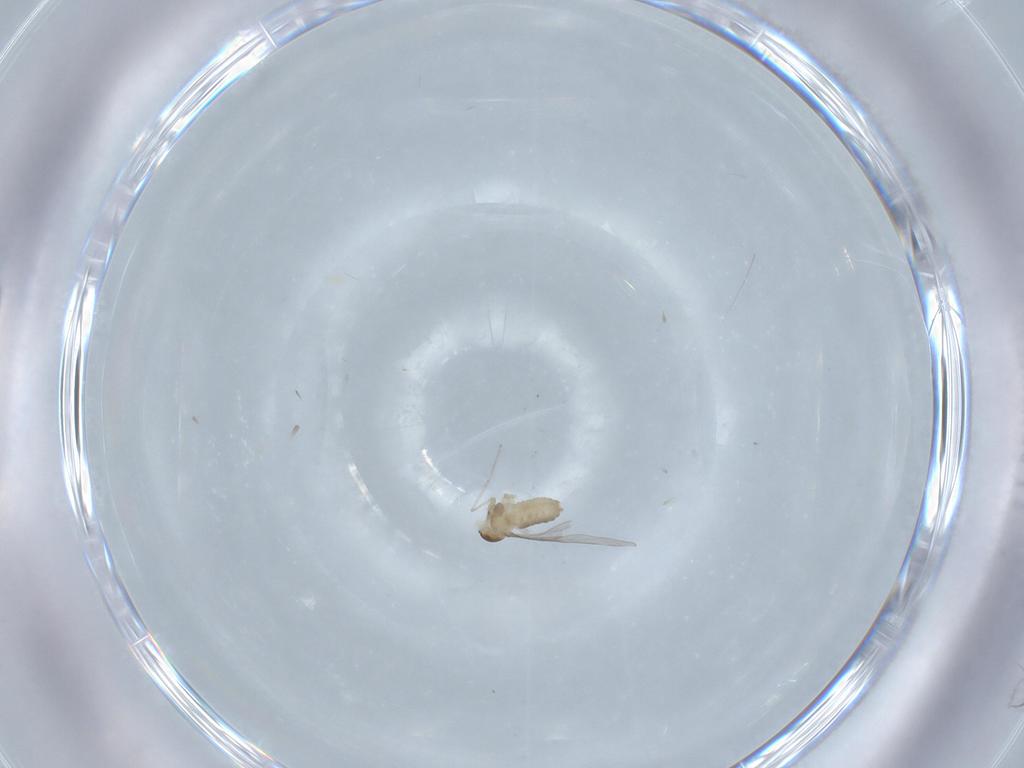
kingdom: Animalia
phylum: Arthropoda
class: Insecta
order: Diptera
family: Cecidomyiidae
